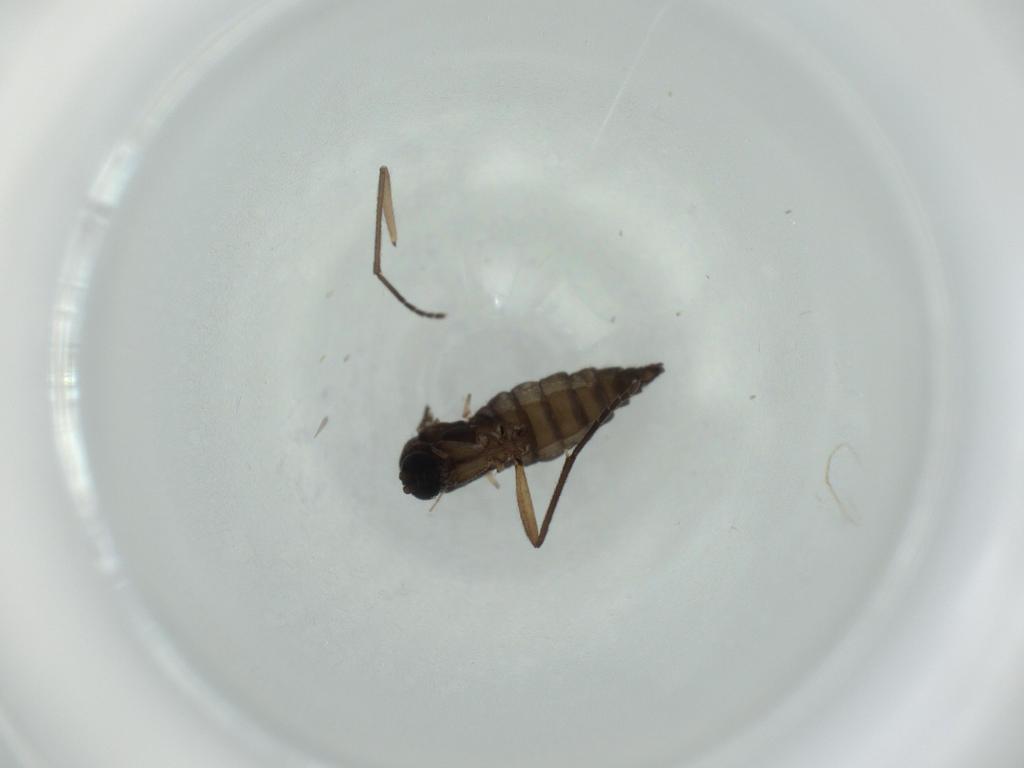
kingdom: Animalia
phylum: Arthropoda
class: Insecta
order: Diptera
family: Sciaridae
